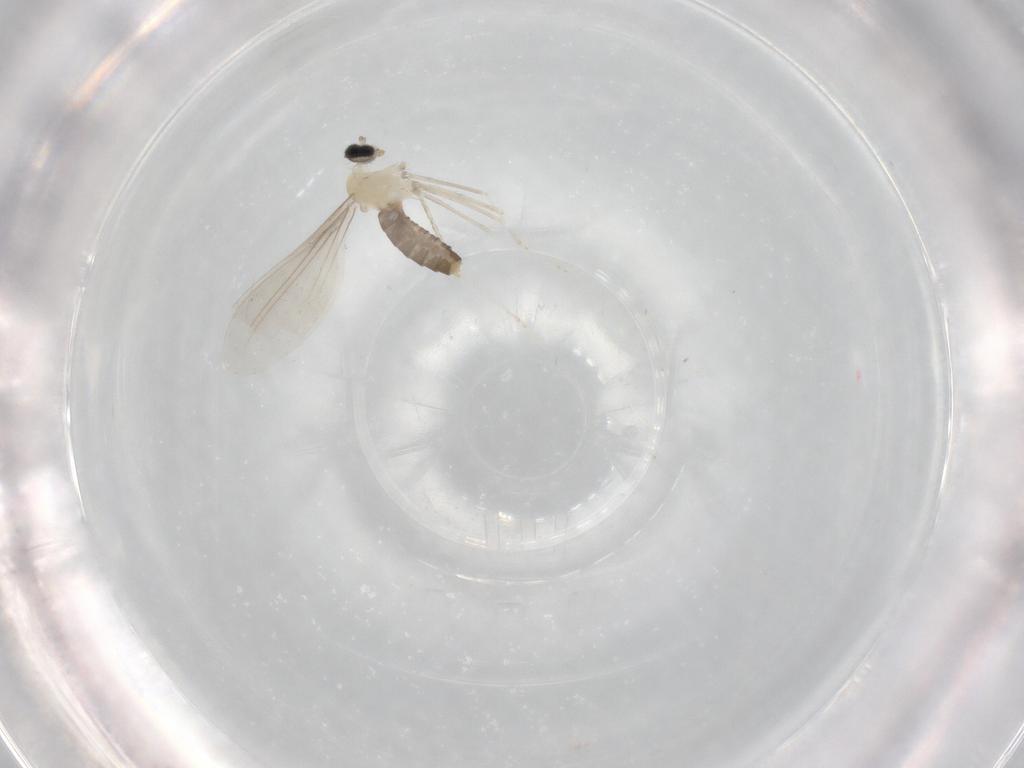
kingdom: Animalia
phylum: Arthropoda
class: Insecta
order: Diptera
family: Cecidomyiidae
